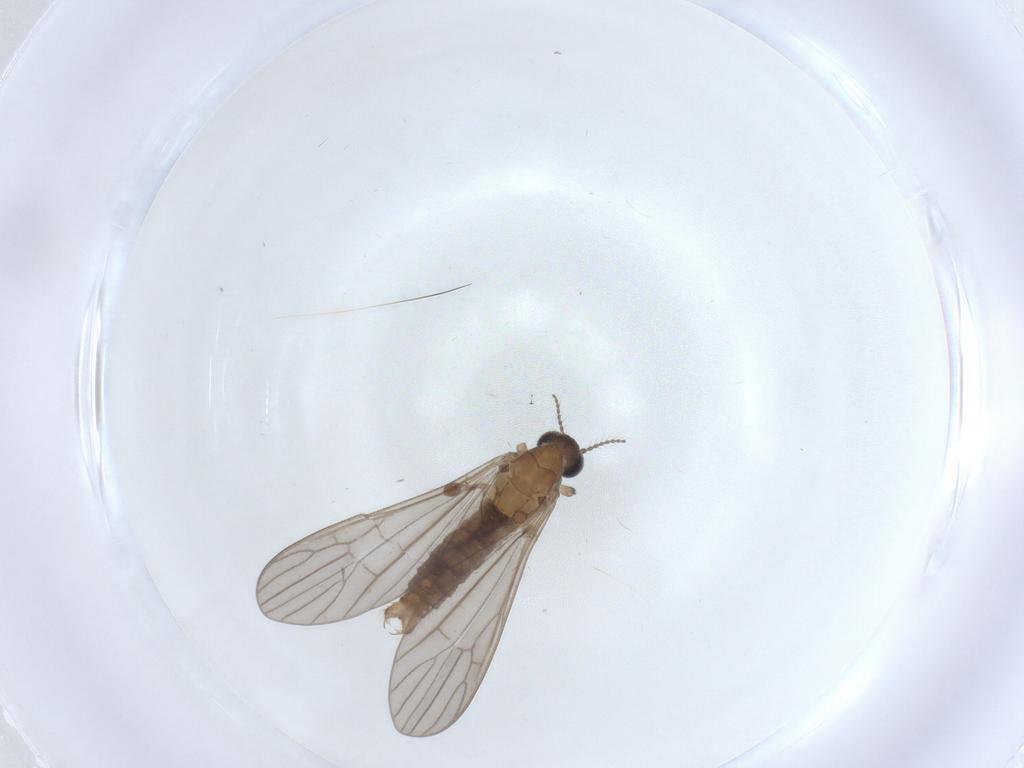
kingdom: Animalia
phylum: Arthropoda
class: Insecta
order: Diptera
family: Limoniidae
